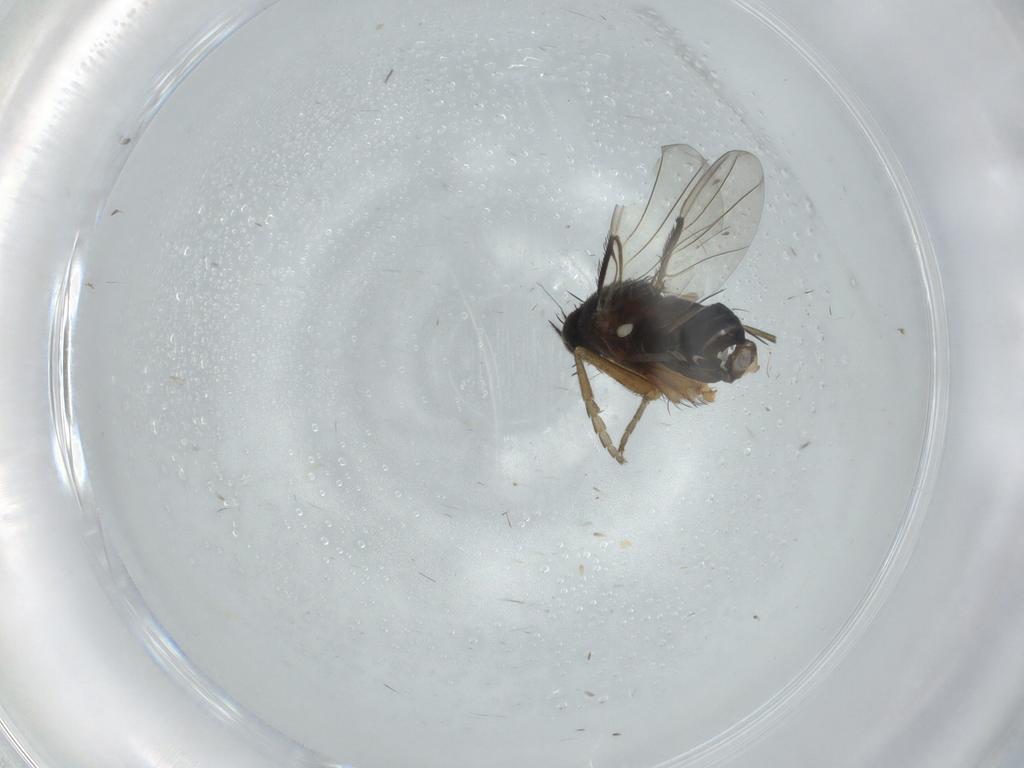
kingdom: Animalia
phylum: Arthropoda
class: Insecta
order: Diptera
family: Phoridae
